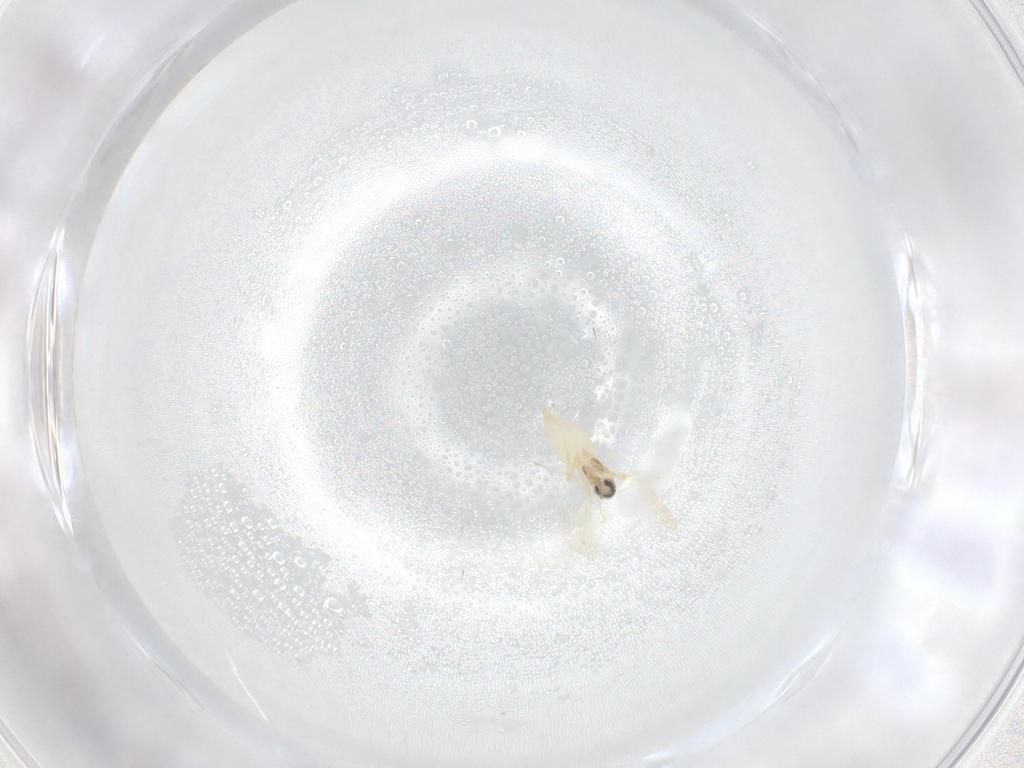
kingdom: Animalia
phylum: Arthropoda
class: Insecta
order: Diptera
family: Cecidomyiidae
